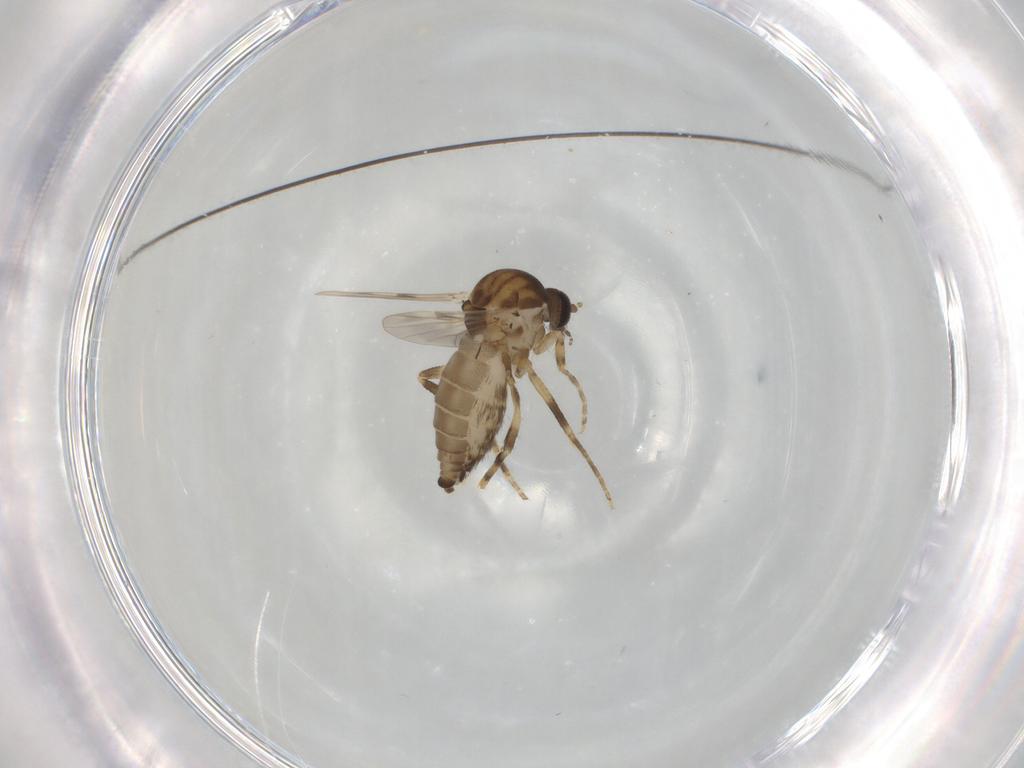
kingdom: Animalia
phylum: Arthropoda
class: Insecta
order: Diptera
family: Ceratopogonidae
